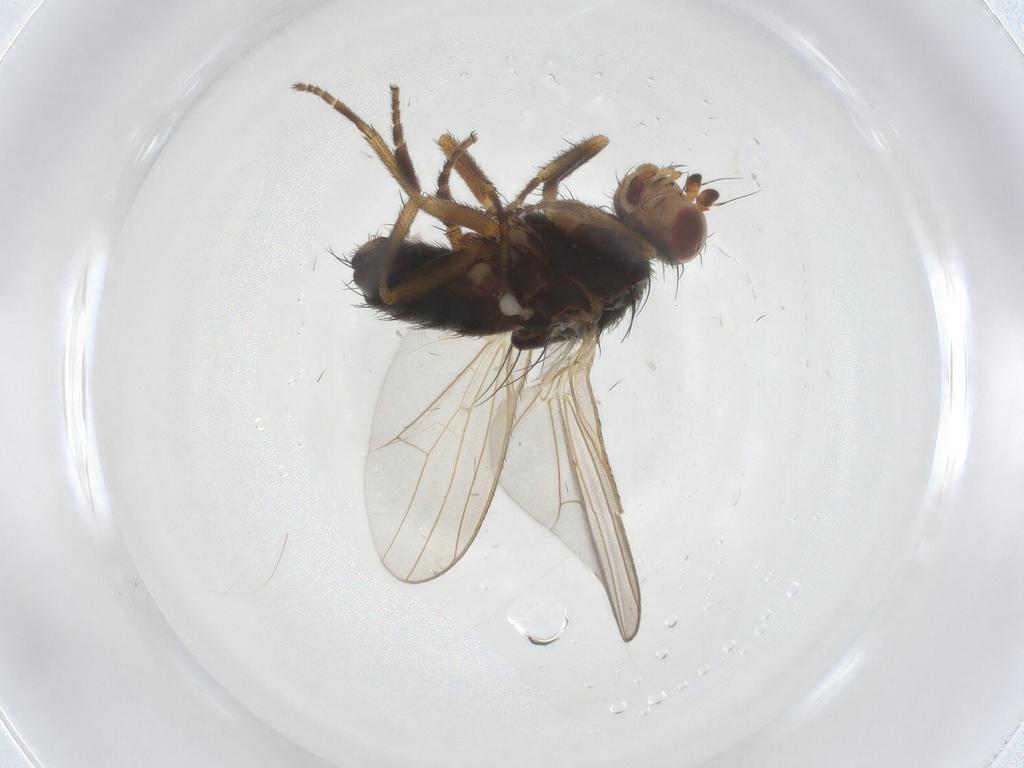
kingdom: Animalia
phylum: Arthropoda
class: Insecta
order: Diptera
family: Heleomyzidae
